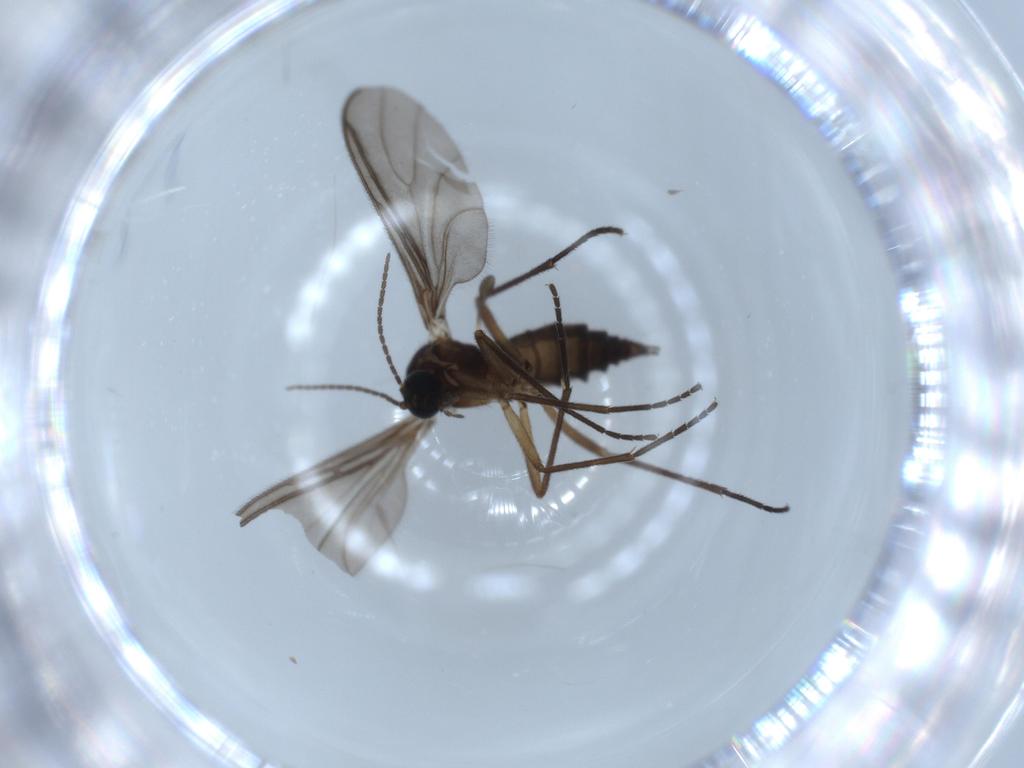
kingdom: Animalia
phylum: Arthropoda
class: Insecta
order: Diptera
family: Sciaridae
